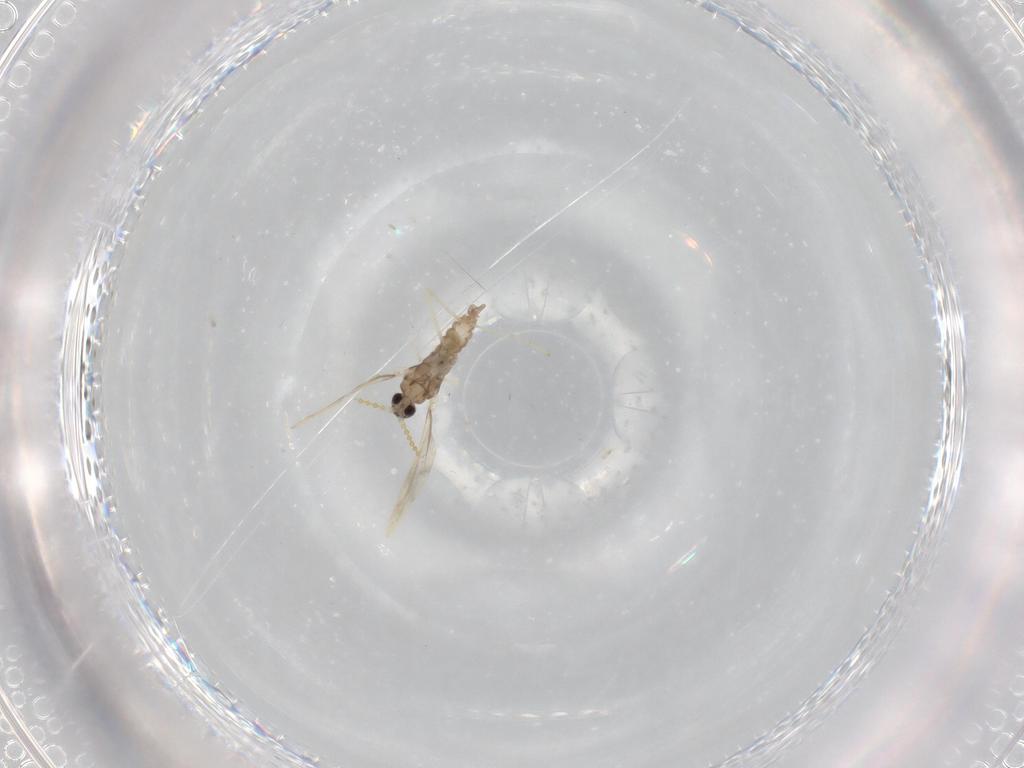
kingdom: Animalia
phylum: Arthropoda
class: Insecta
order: Diptera
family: Cecidomyiidae
